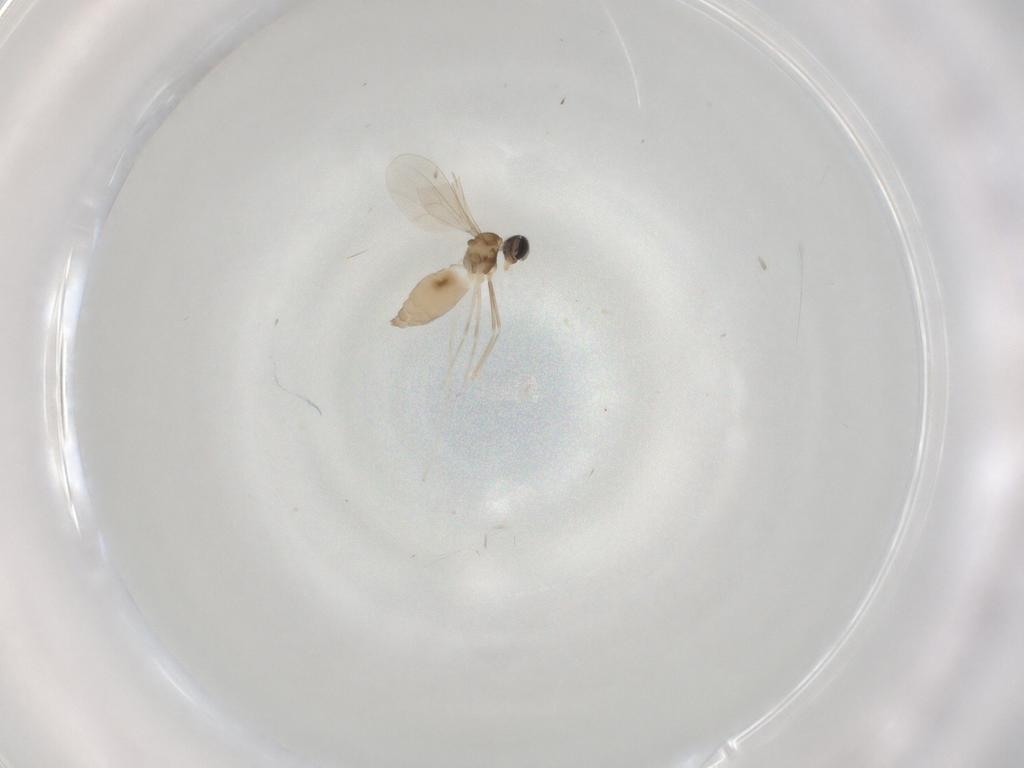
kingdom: Animalia
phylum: Arthropoda
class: Insecta
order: Diptera
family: Cecidomyiidae
